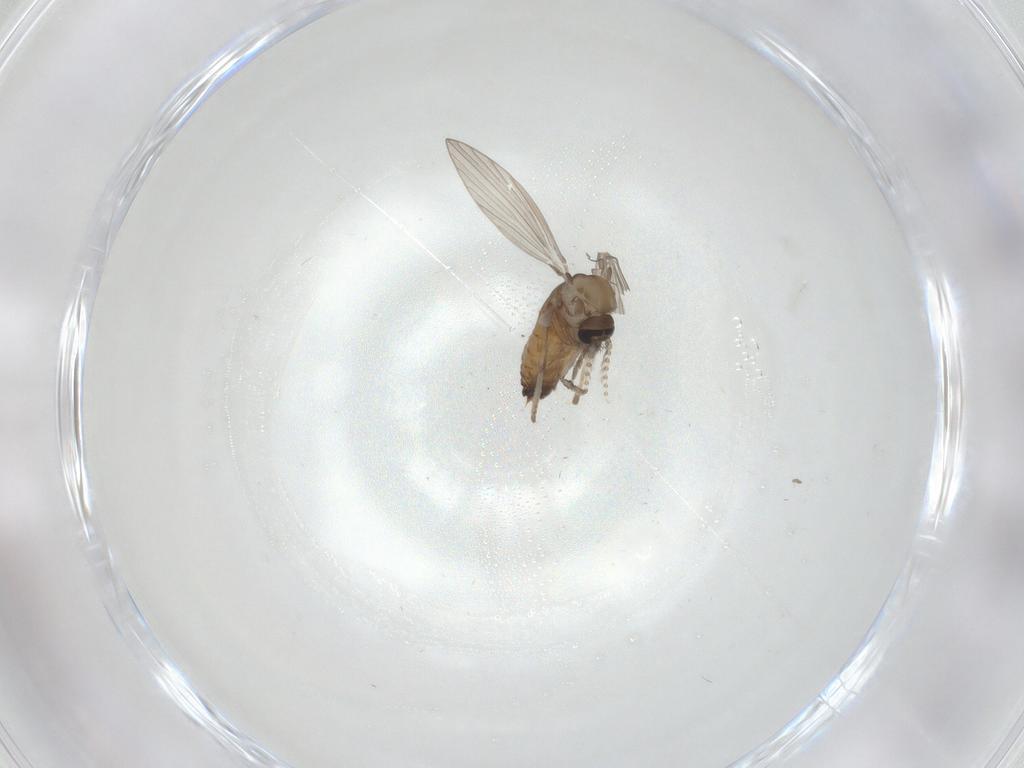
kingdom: Animalia
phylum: Arthropoda
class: Insecta
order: Diptera
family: Psychodidae
